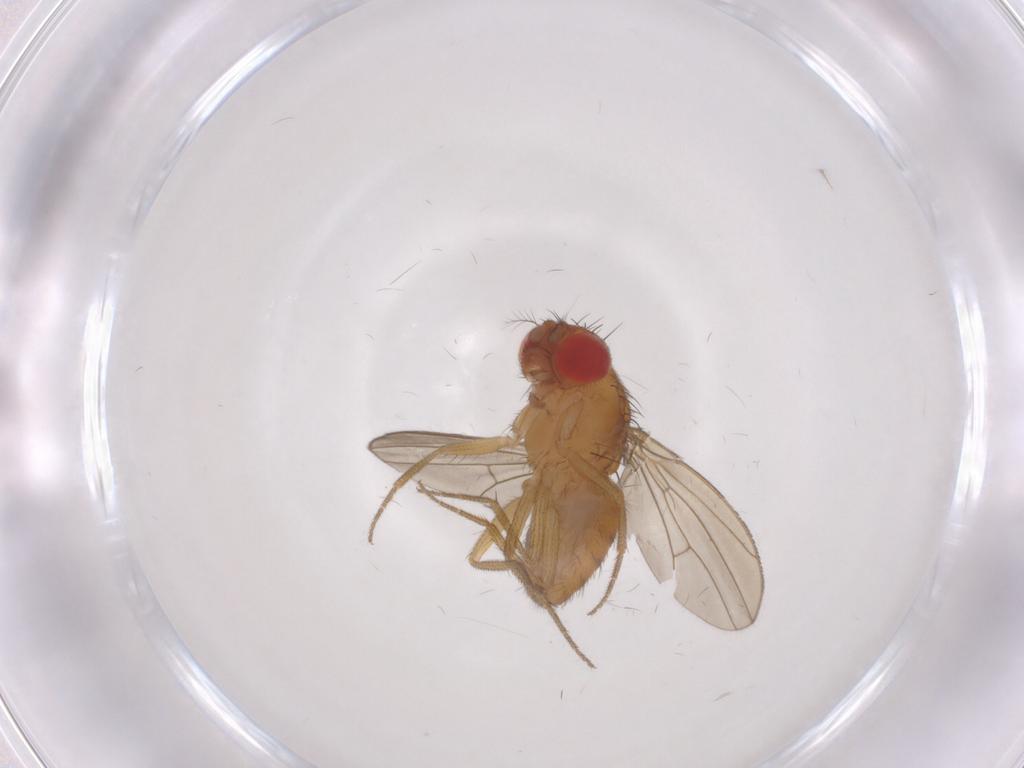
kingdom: Animalia
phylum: Arthropoda
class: Insecta
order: Diptera
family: Drosophilidae
